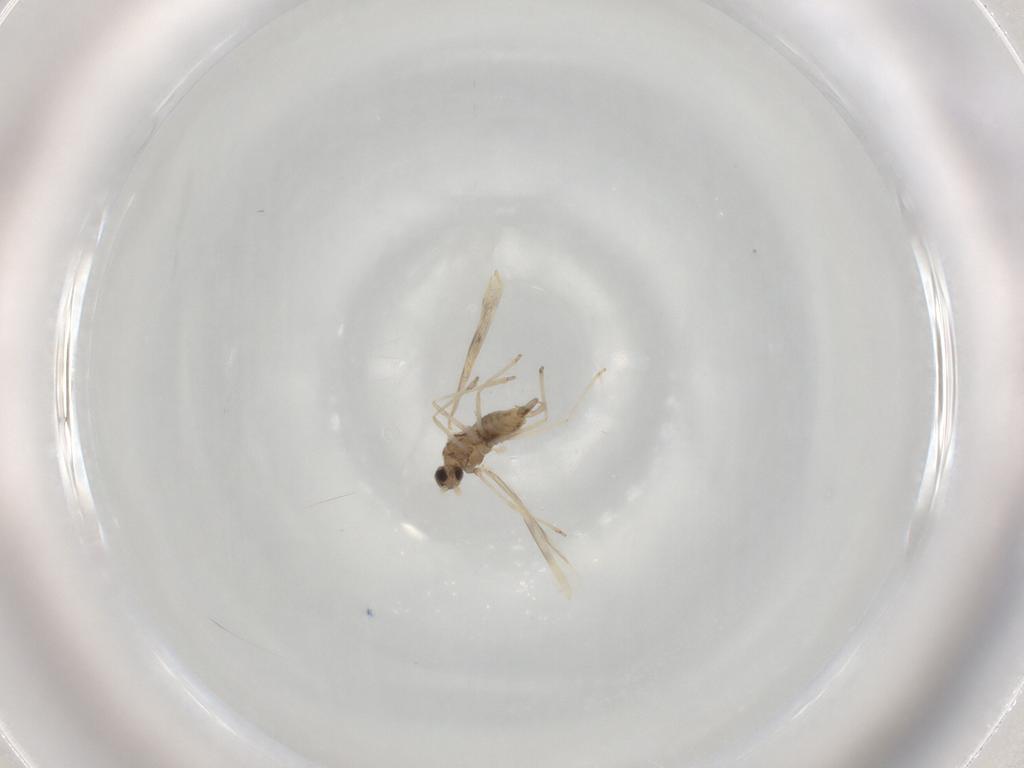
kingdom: Animalia
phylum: Arthropoda
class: Insecta
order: Diptera
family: Cecidomyiidae
